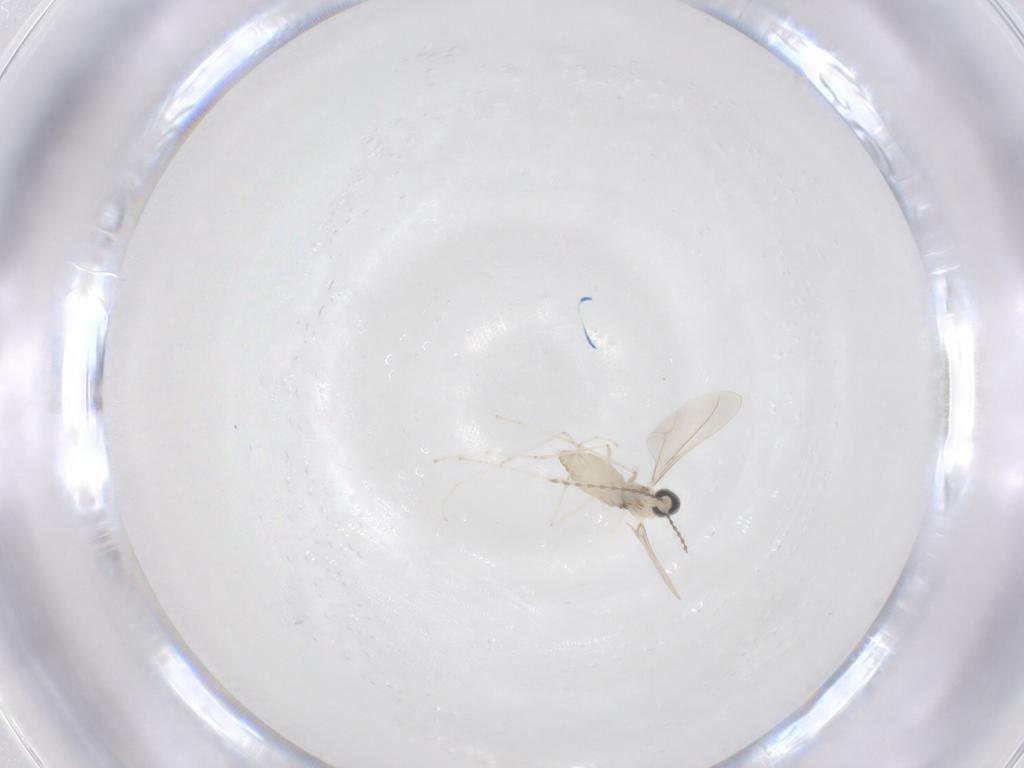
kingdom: Animalia
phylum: Arthropoda
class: Insecta
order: Diptera
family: Cecidomyiidae
